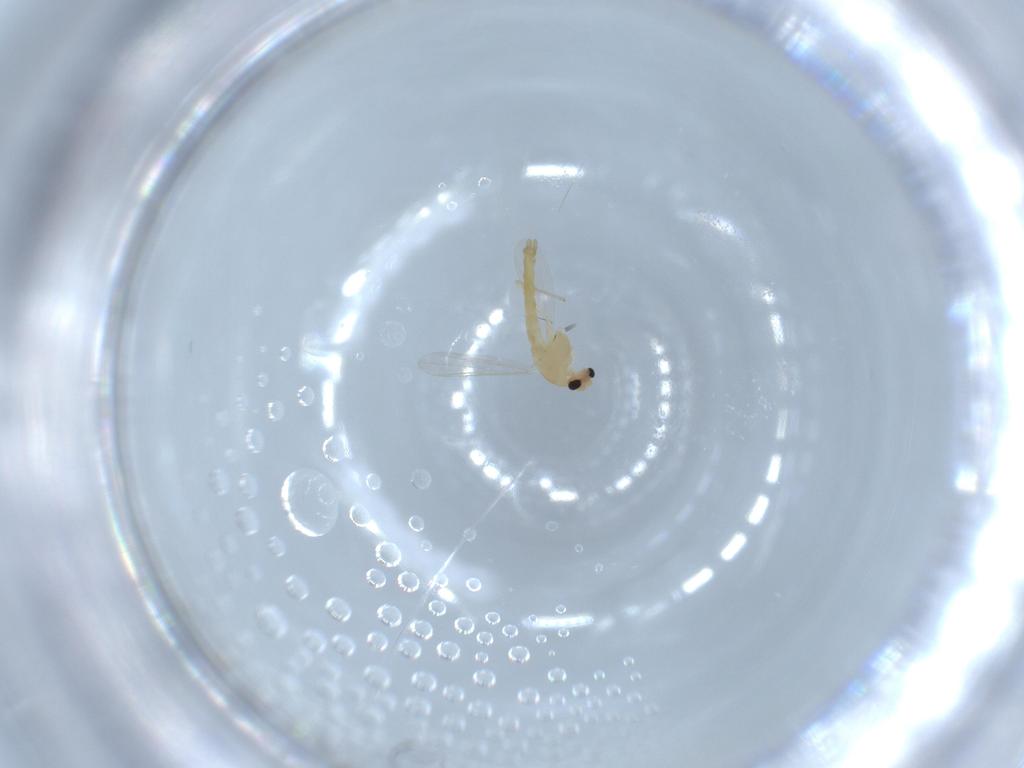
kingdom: Animalia
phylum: Arthropoda
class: Insecta
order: Diptera
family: Chironomidae
